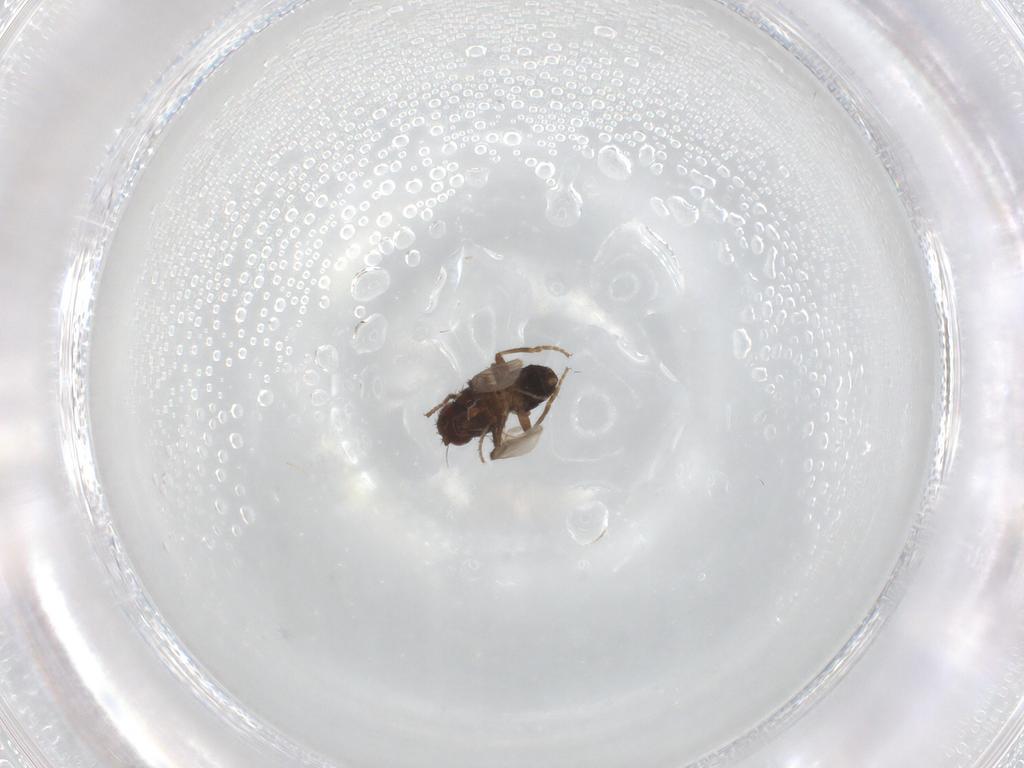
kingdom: Animalia
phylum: Arthropoda
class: Insecta
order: Diptera
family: Sphaeroceridae
